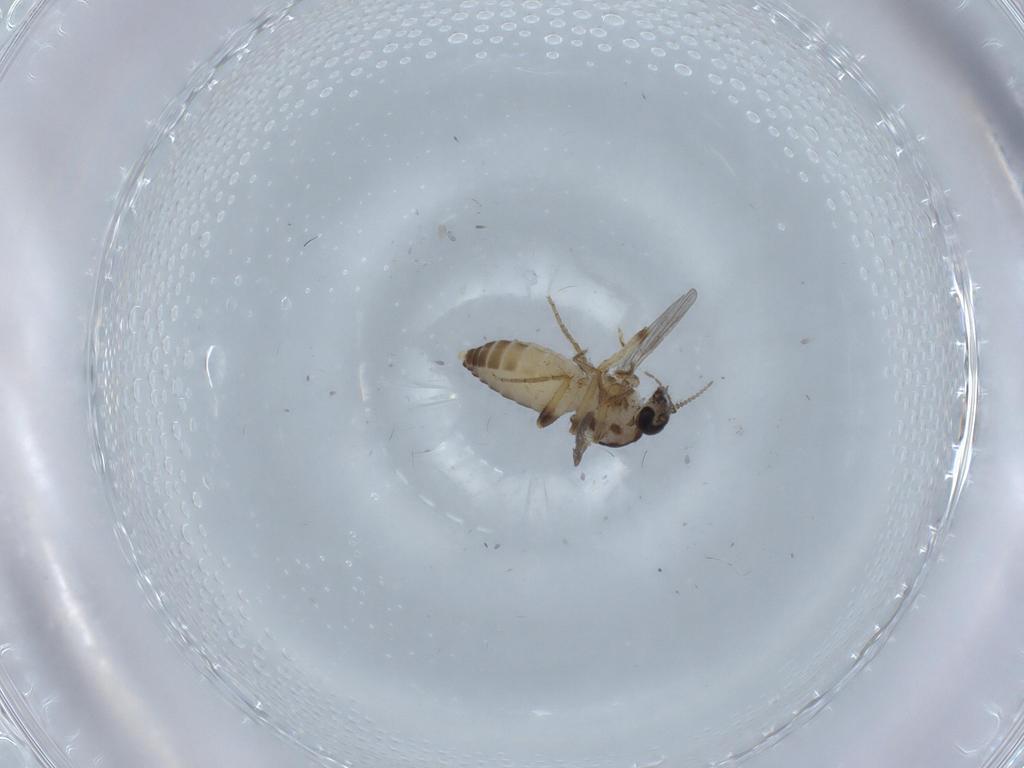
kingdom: Animalia
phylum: Arthropoda
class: Insecta
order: Diptera
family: Ceratopogonidae
